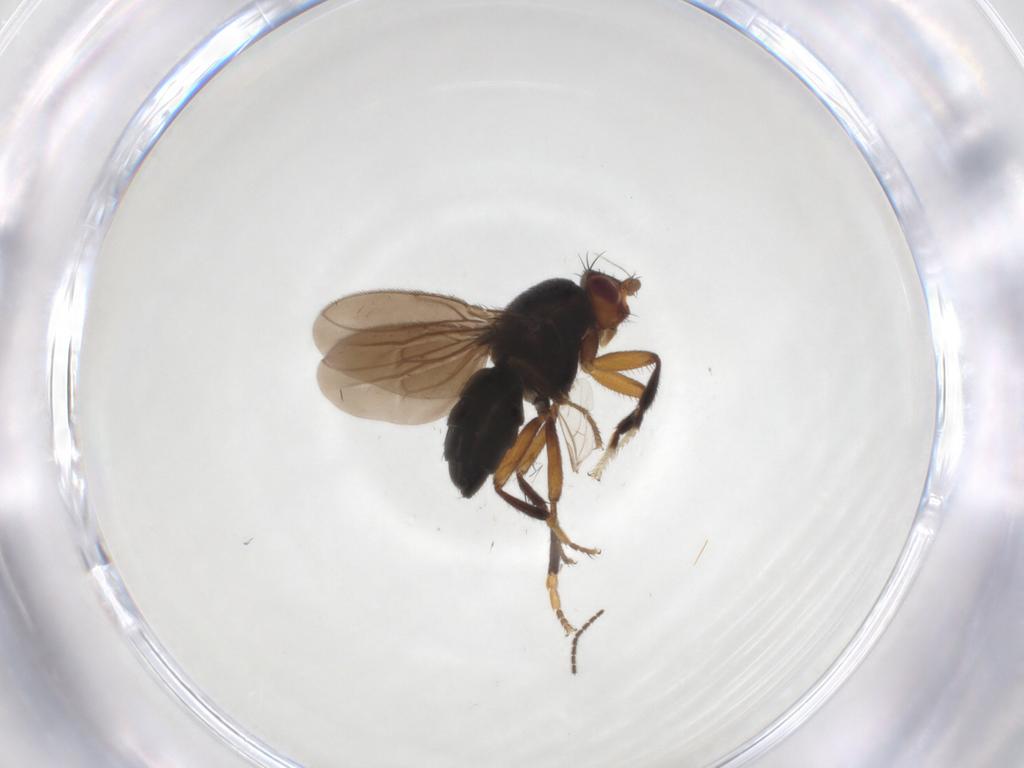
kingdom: Animalia
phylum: Arthropoda
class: Insecta
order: Diptera
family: Sphaeroceridae
